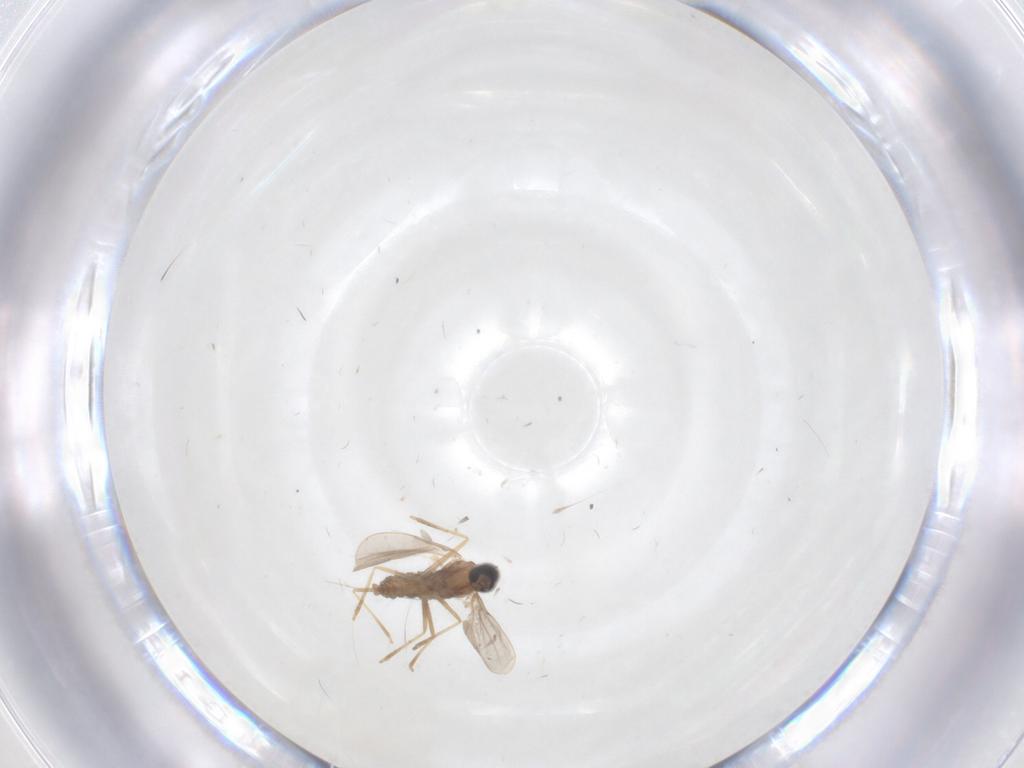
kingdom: Animalia
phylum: Arthropoda
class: Insecta
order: Diptera
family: Cecidomyiidae
